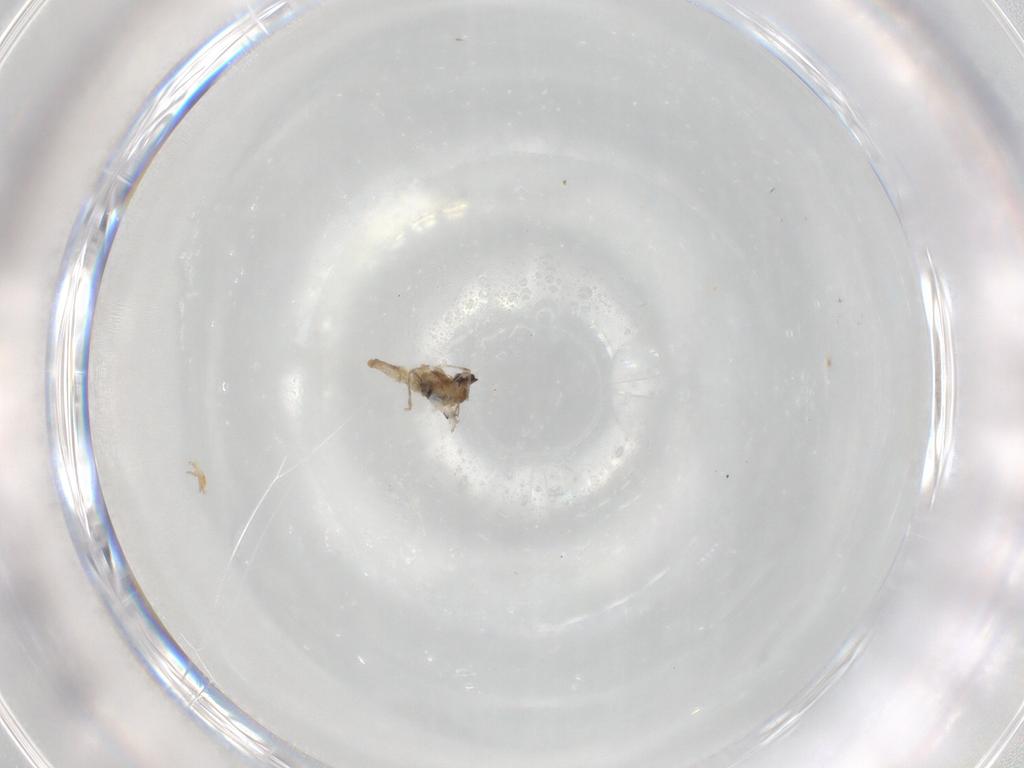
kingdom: Animalia
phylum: Arthropoda
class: Insecta
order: Diptera
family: Cecidomyiidae
